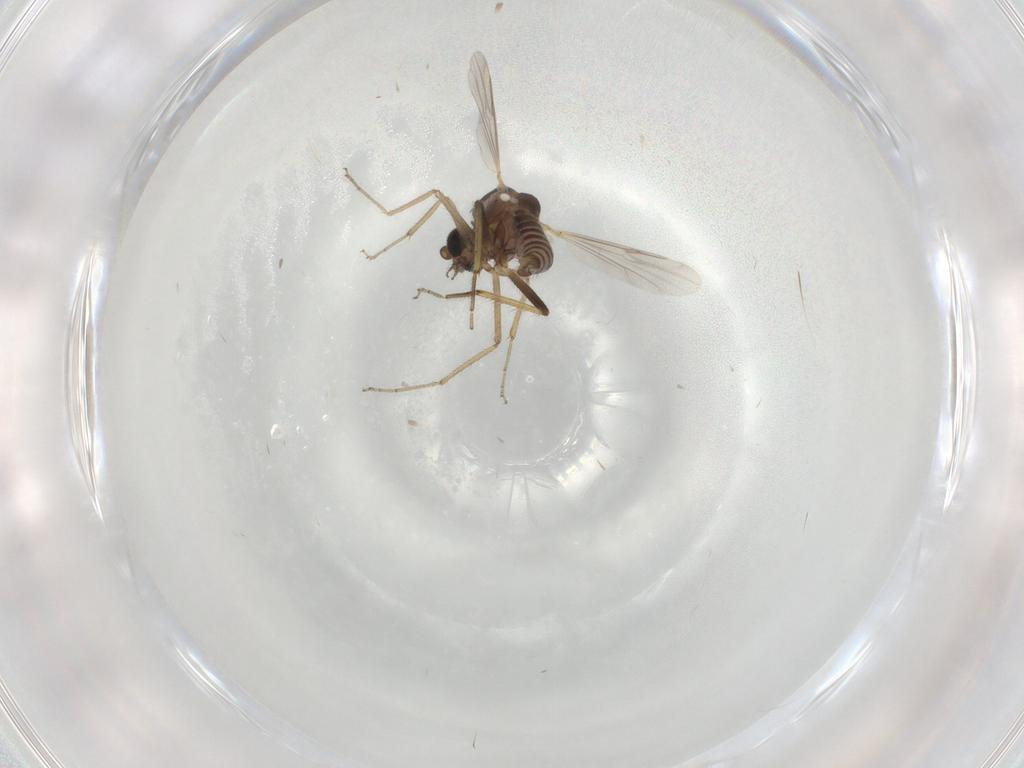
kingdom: Animalia
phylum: Arthropoda
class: Insecta
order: Diptera
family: Ceratopogonidae
